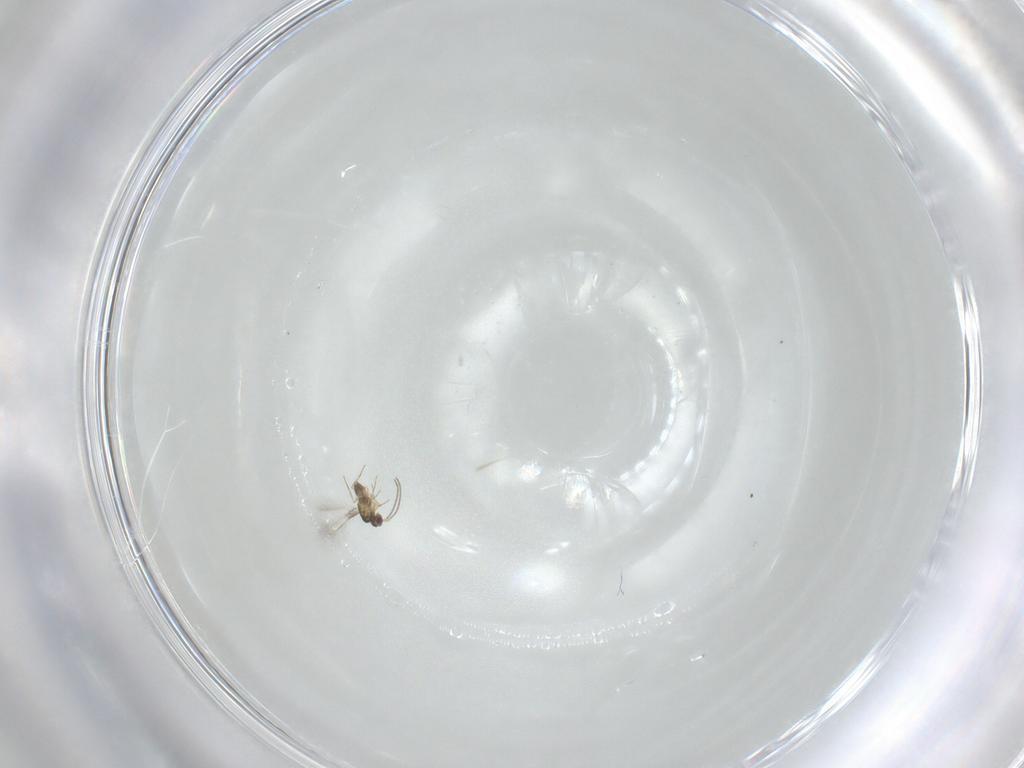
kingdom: Animalia
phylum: Arthropoda
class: Insecta
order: Hymenoptera
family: Mymaridae
